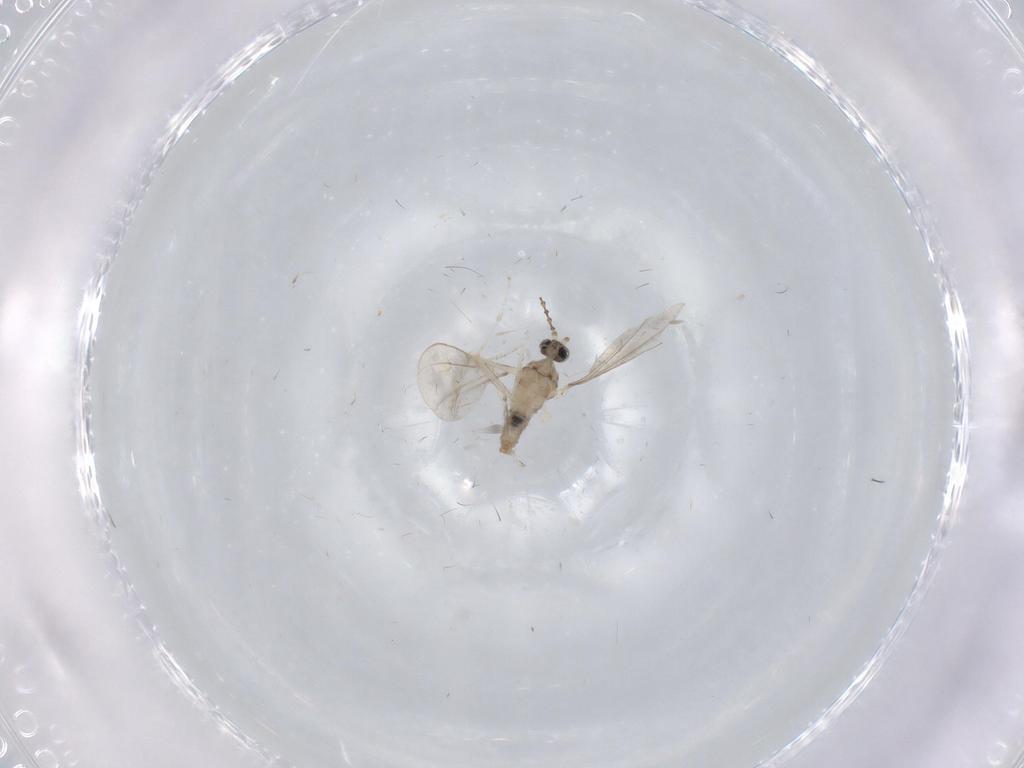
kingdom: Animalia
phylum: Arthropoda
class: Insecta
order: Diptera
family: Cecidomyiidae
